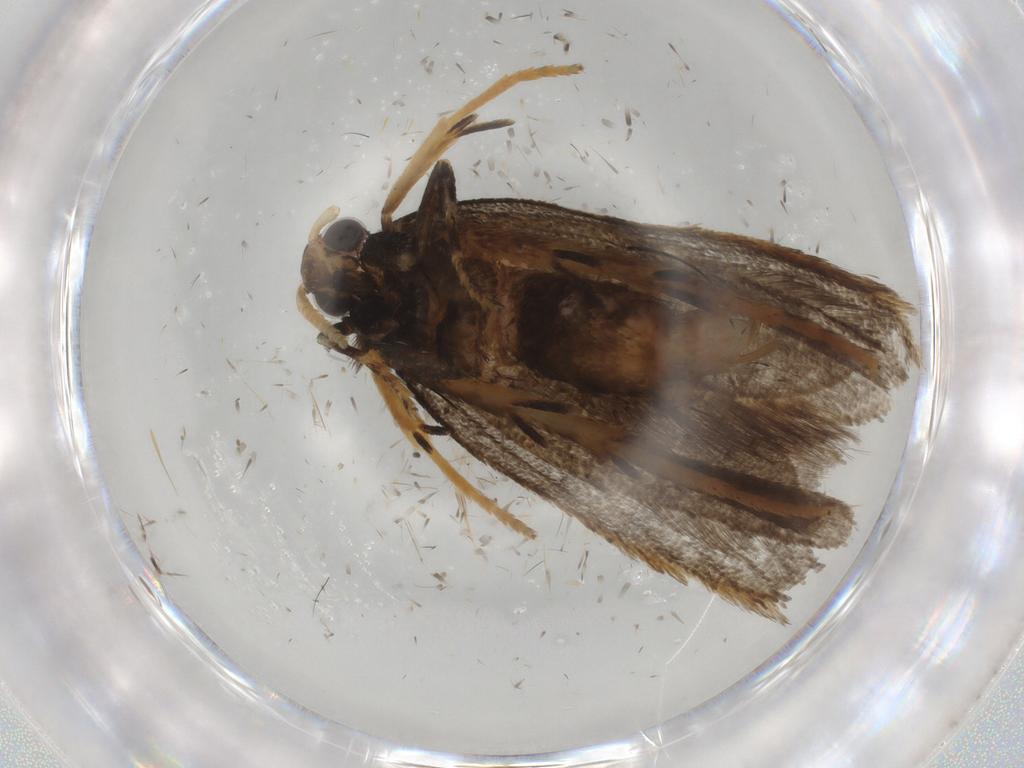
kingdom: Animalia
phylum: Arthropoda
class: Insecta
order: Lepidoptera
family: Lecithoceridae
